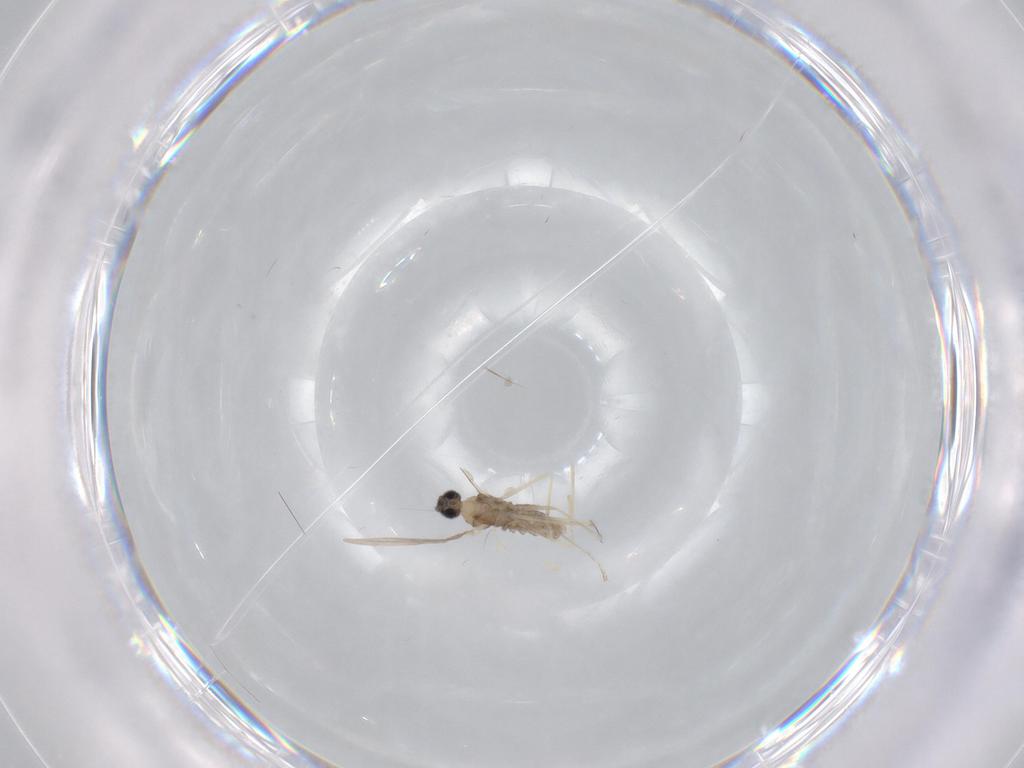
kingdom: Animalia
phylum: Arthropoda
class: Insecta
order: Diptera
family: Cecidomyiidae
